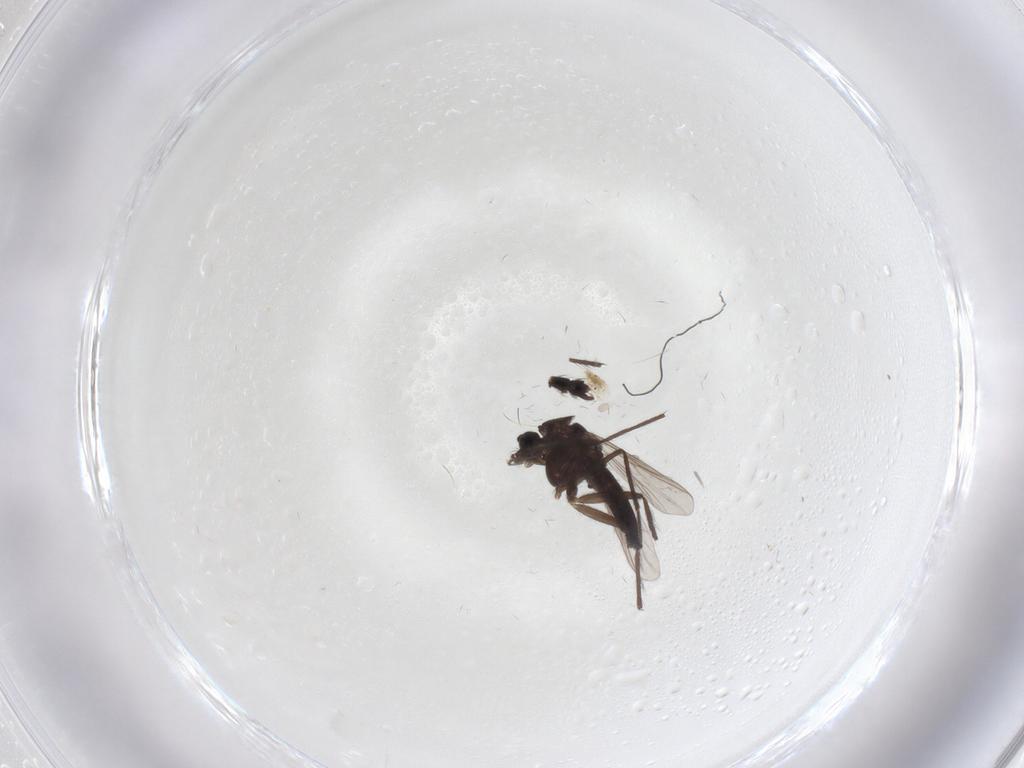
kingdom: Animalia
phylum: Arthropoda
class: Insecta
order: Diptera
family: Chironomidae
